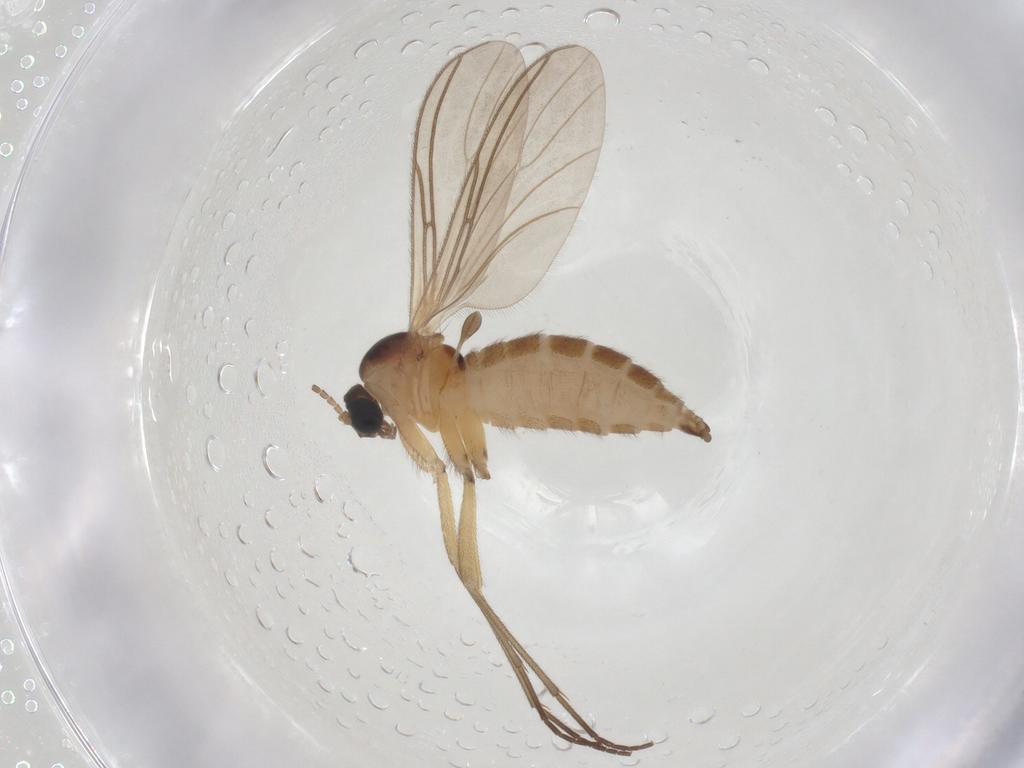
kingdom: Animalia
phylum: Arthropoda
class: Insecta
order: Diptera
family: Sciaridae
